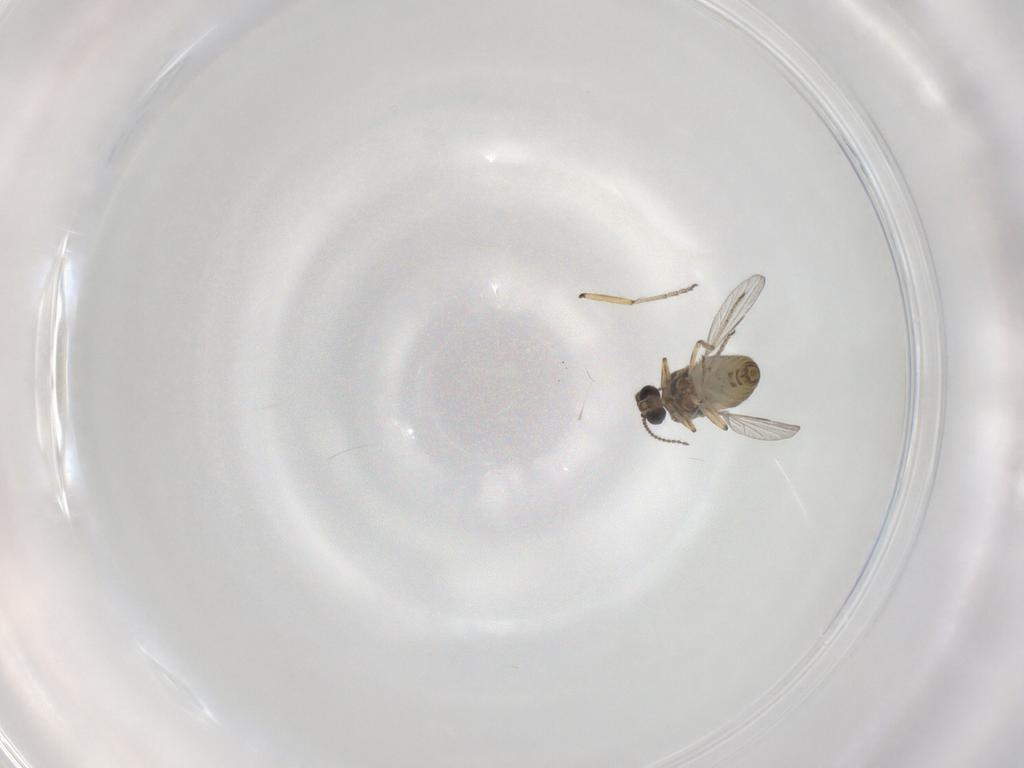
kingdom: Animalia
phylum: Arthropoda
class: Insecta
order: Diptera
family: Ceratopogonidae
